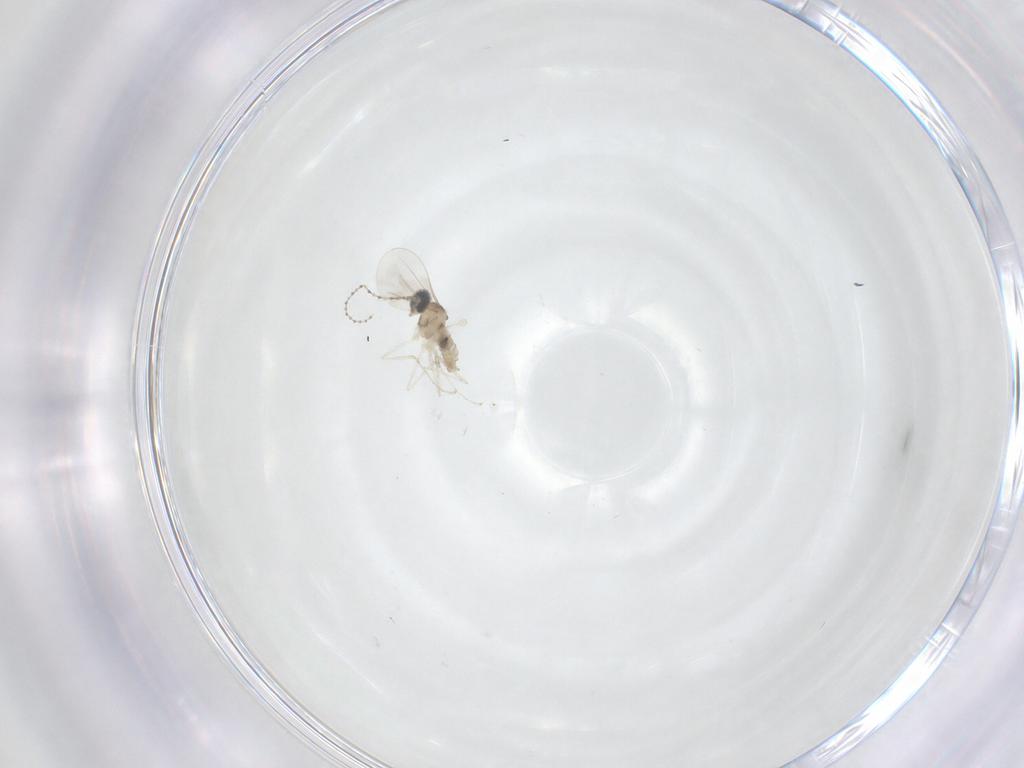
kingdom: Animalia
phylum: Arthropoda
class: Insecta
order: Diptera
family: Cecidomyiidae
